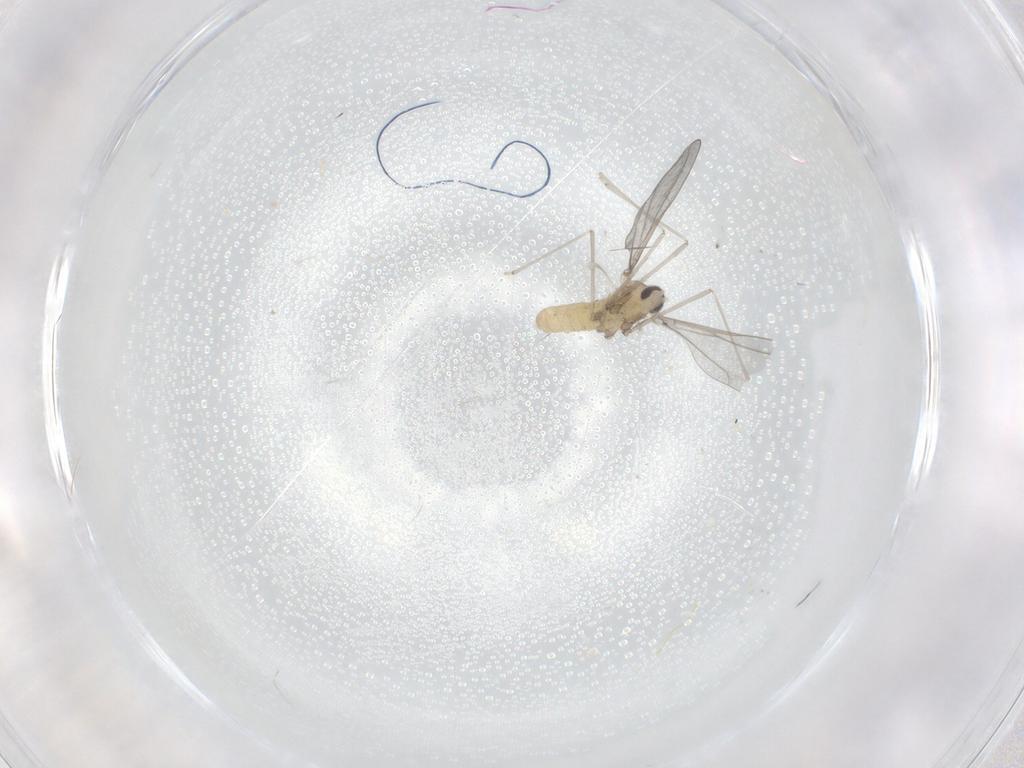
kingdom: Animalia
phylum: Arthropoda
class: Insecta
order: Diptera
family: Cecidomyiidae
